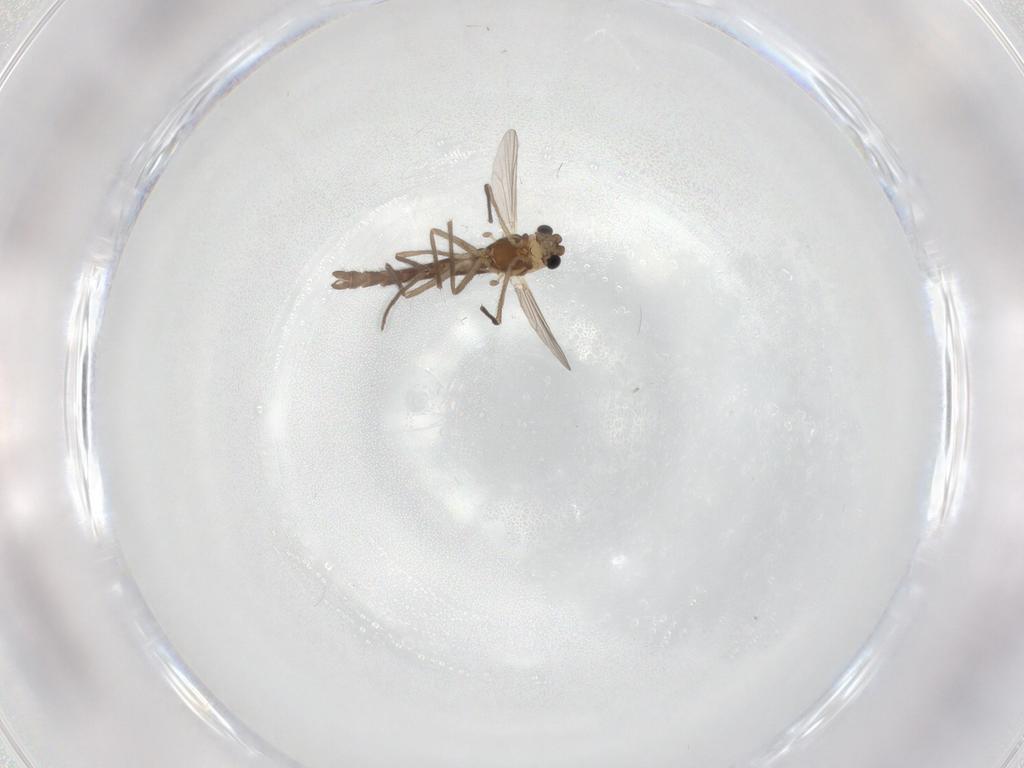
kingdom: Animalia
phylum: Arthropoda
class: Insecta
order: Diptera
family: Chironomidae
